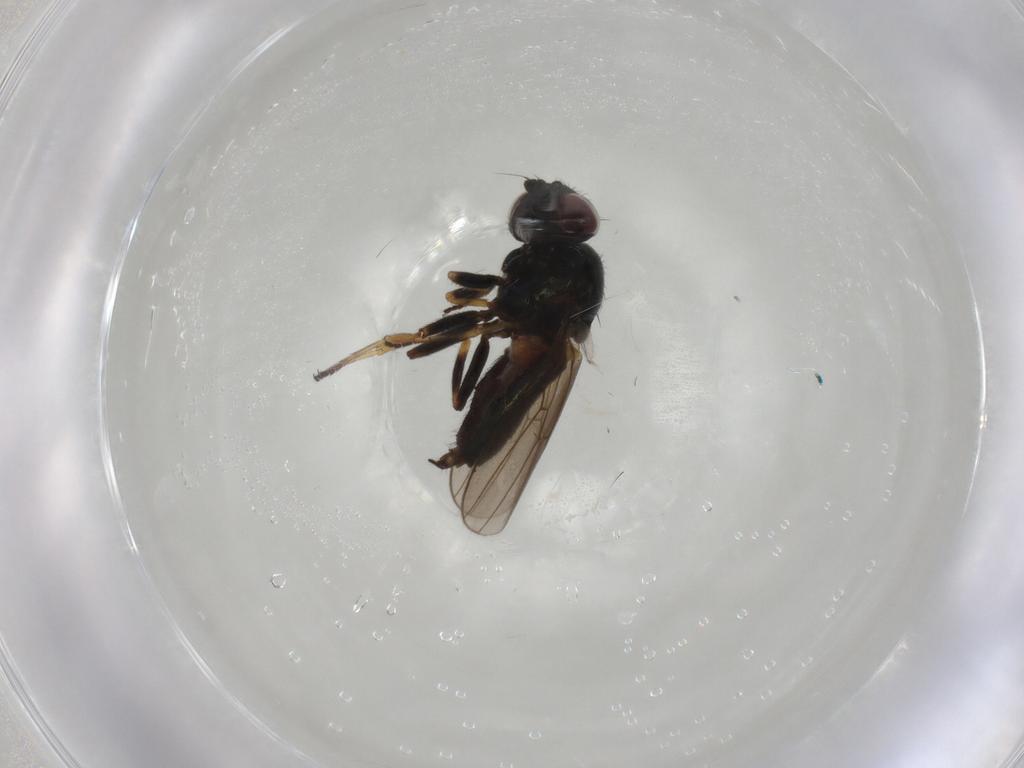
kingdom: Animalia
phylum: Arthropoda
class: Insecta
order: Diptera
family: Chloropidae
